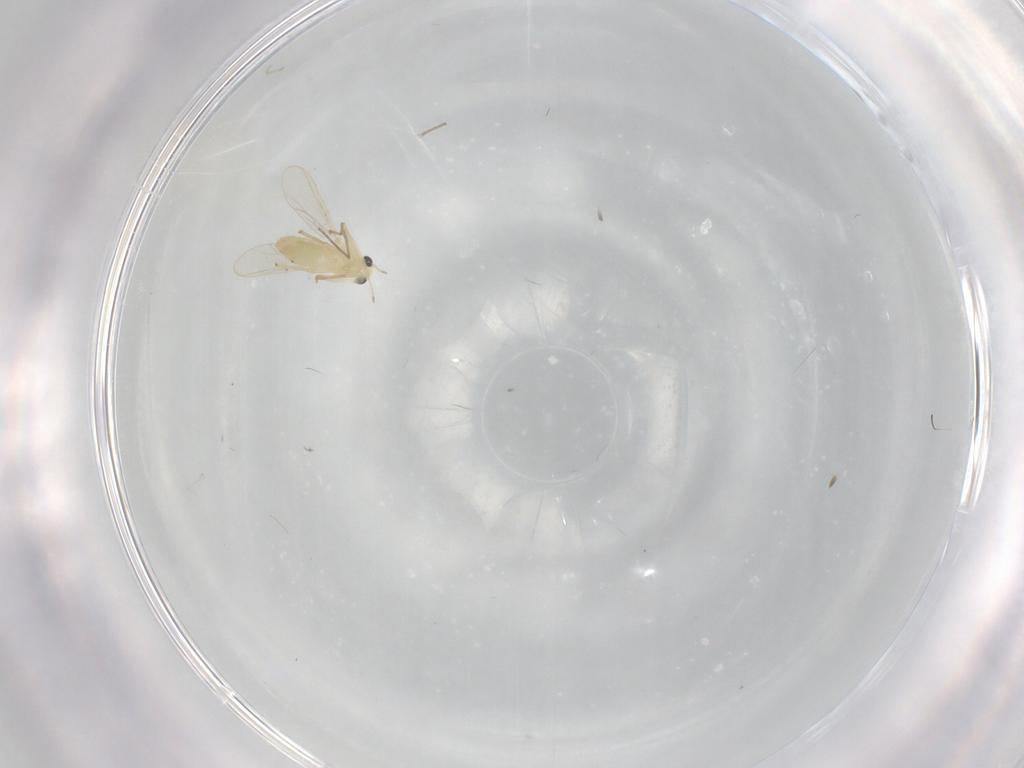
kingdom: Animalia
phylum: Arthropoda
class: Insecta
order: Diptera
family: Chironomidae
